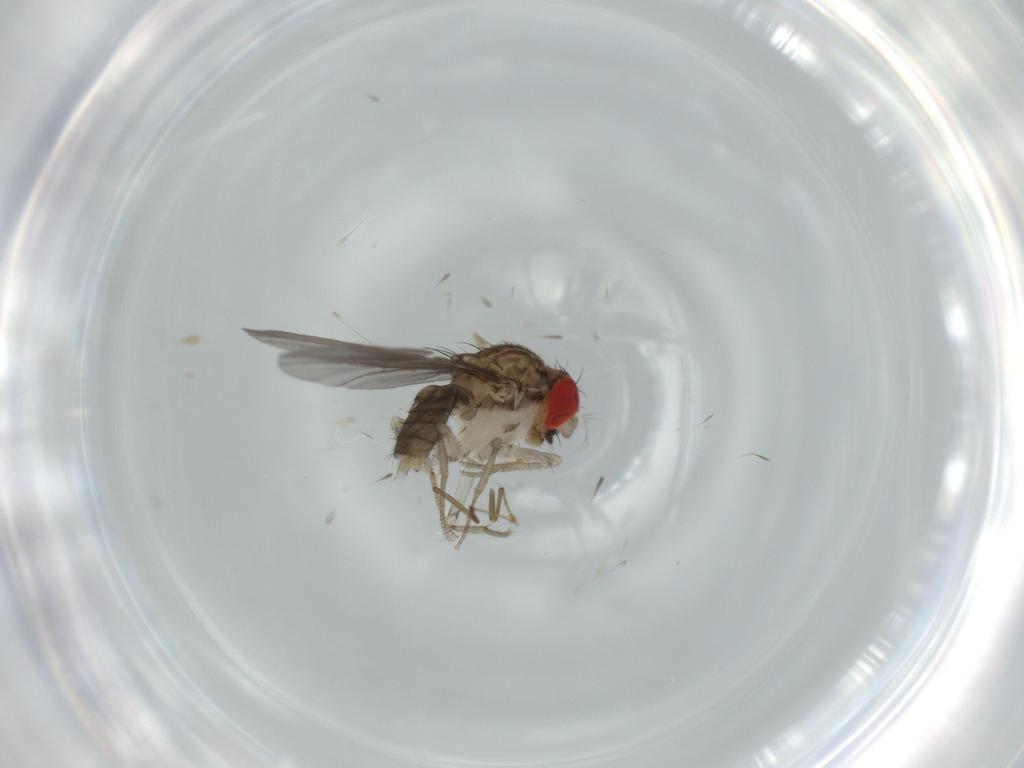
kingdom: Animalia
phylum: Arthropoda
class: Insecta
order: Diptera
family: Drosophilidae
